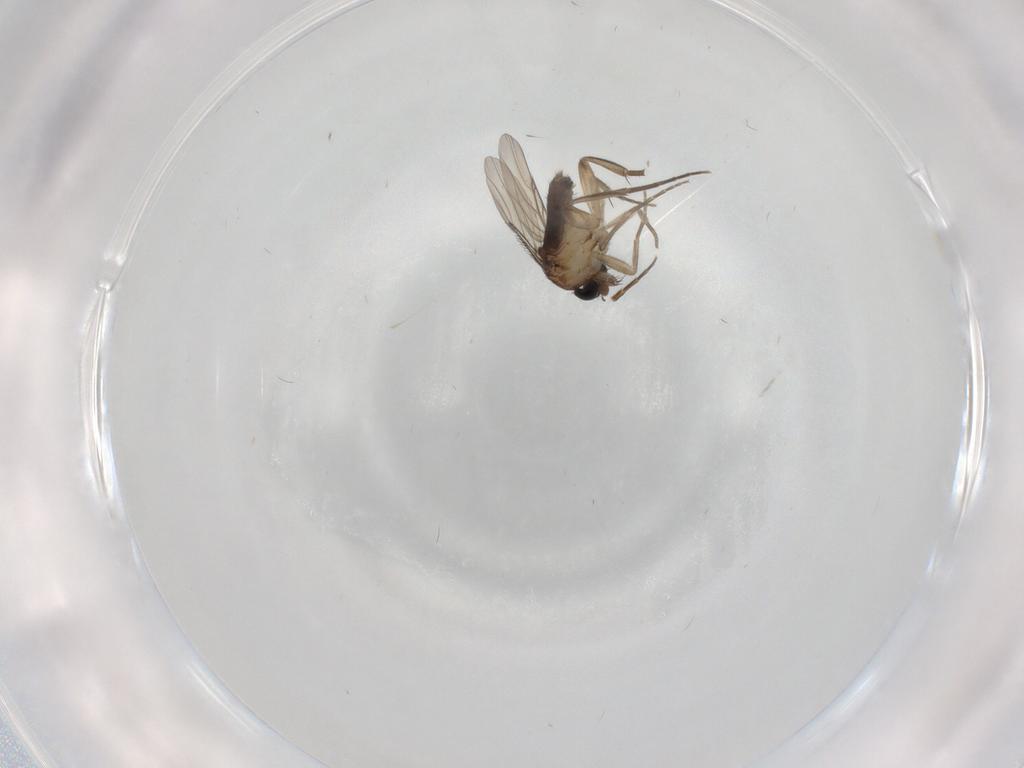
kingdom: Animalia
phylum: Arthropoda
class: Insecta
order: Diptera
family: Phoridae
